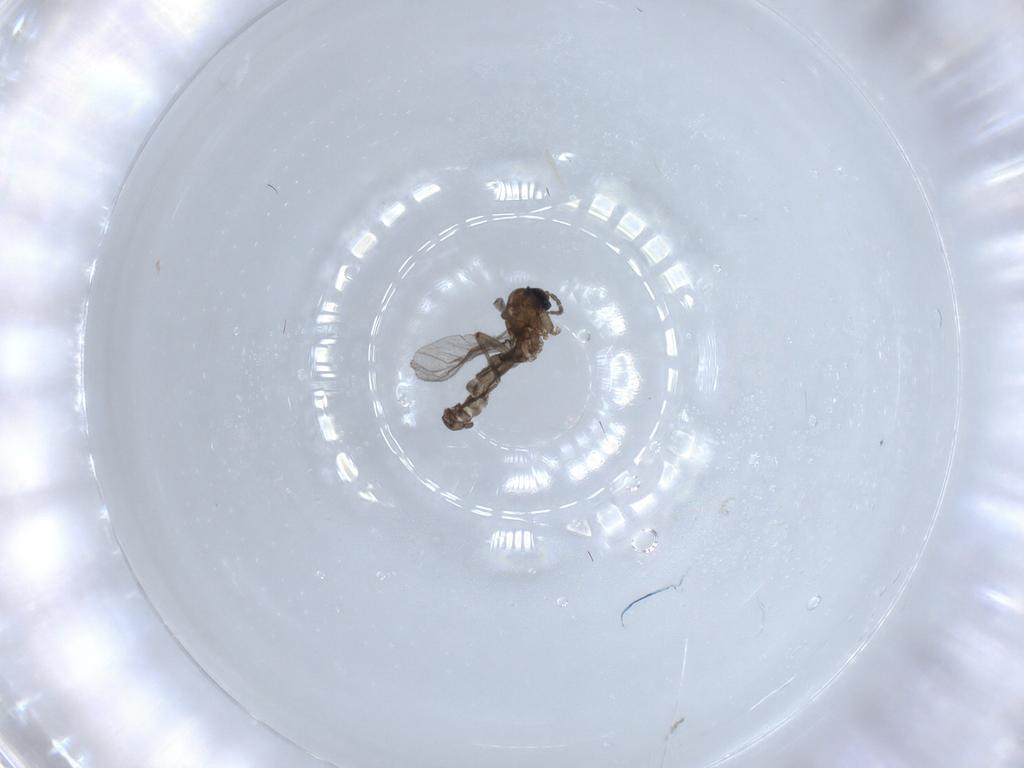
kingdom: Animalia
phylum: Arthropoda
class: Insecta
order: Diptera
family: Sciaridae
